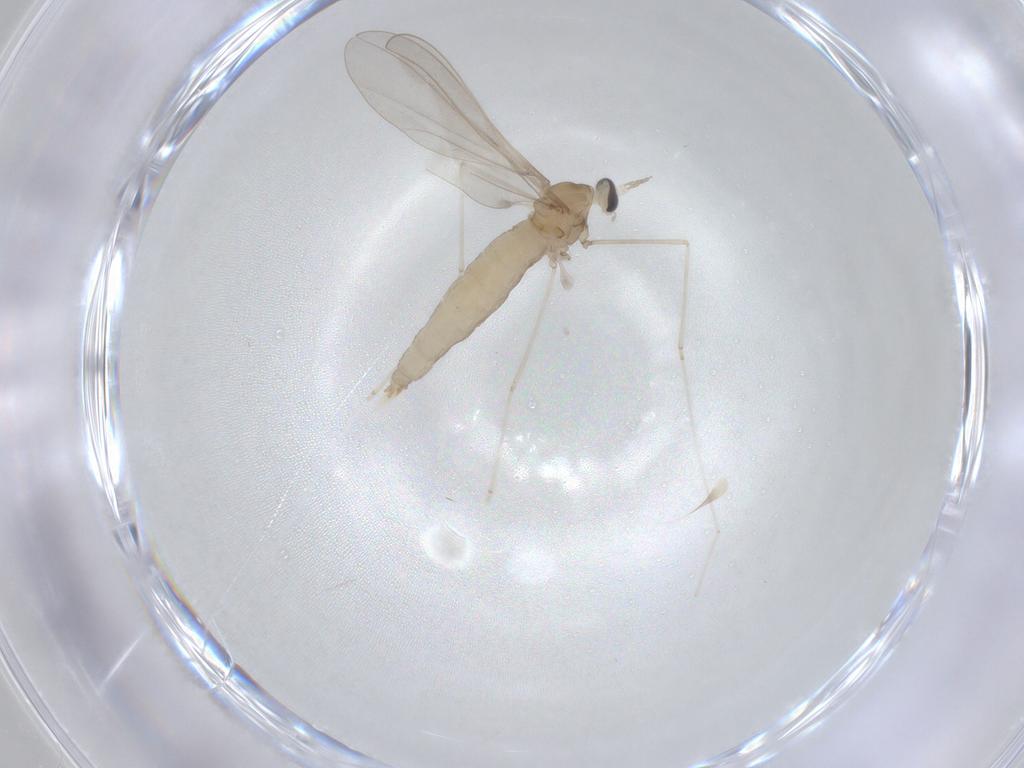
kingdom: Animalia
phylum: Arthropoda
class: Insecta
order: Diptera
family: Cecidomyiidae
